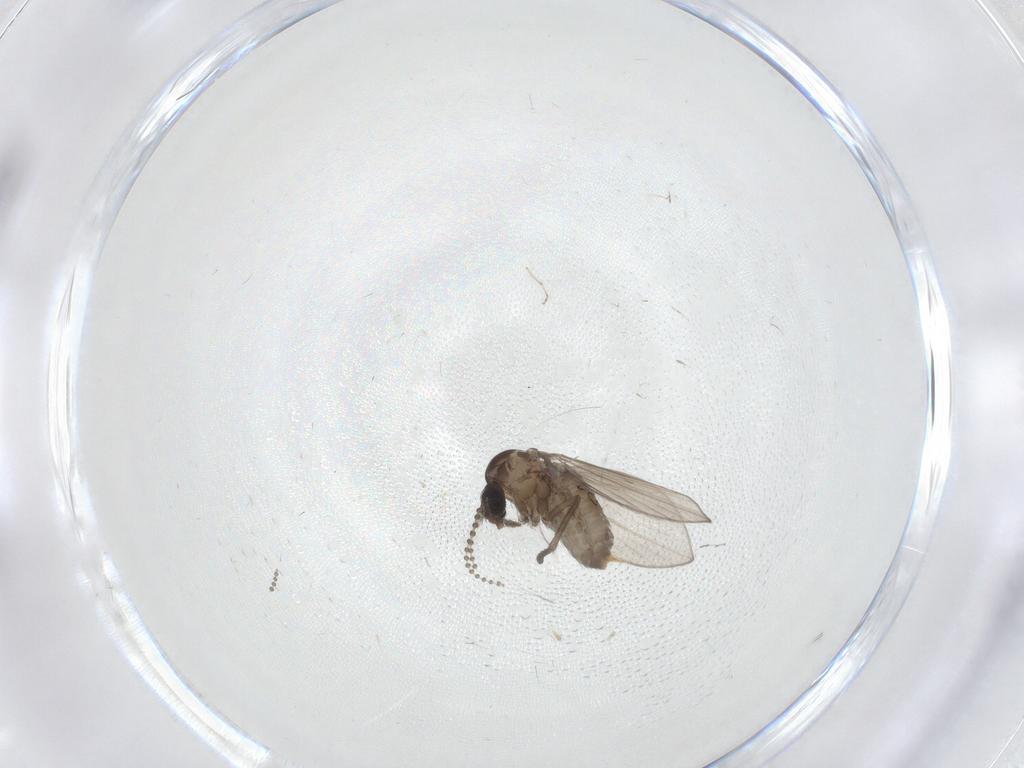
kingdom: Animalia
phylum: Arthropoda
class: Insecta
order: Diptera
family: Psychodidae
